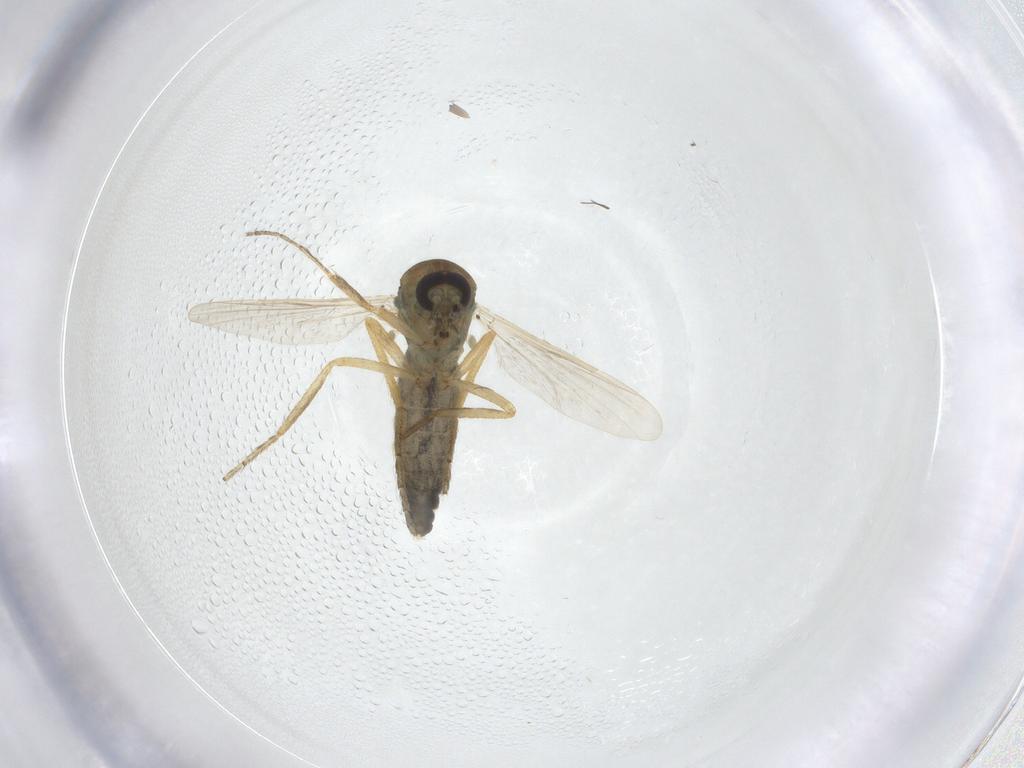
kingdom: Animalia
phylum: Arthropoda
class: Insecta
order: Diptera
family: Ceratopogonidae
